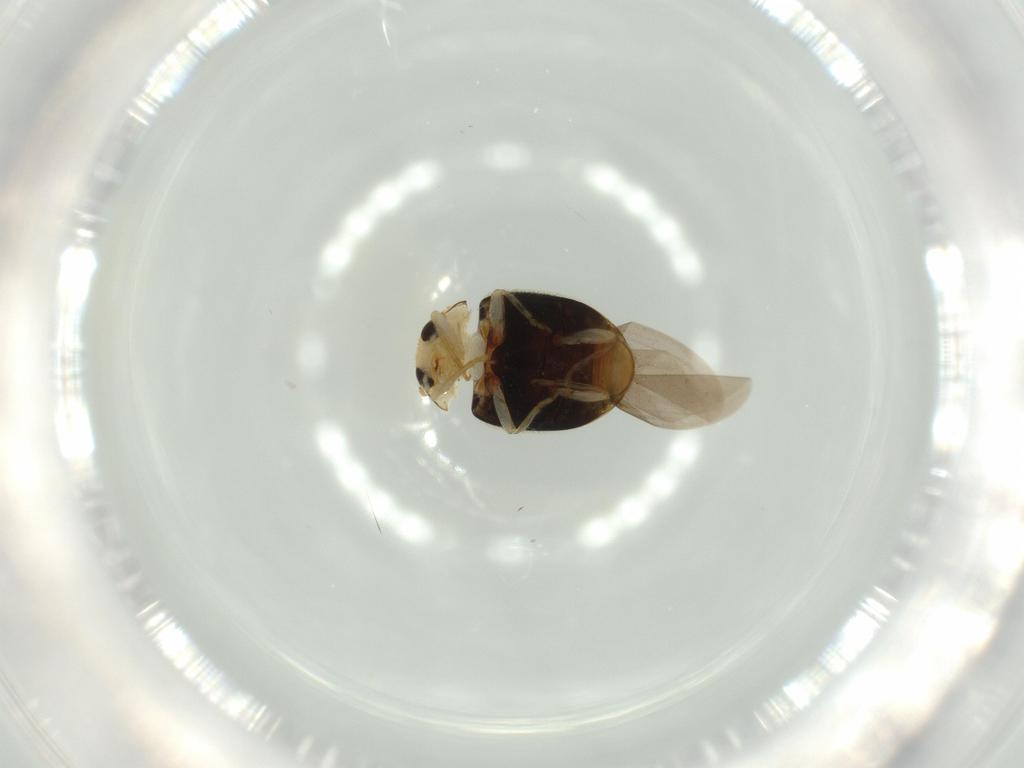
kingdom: Animalia
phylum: Arthropoda
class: Insecta
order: Coleoptera
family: Coccinellidae
